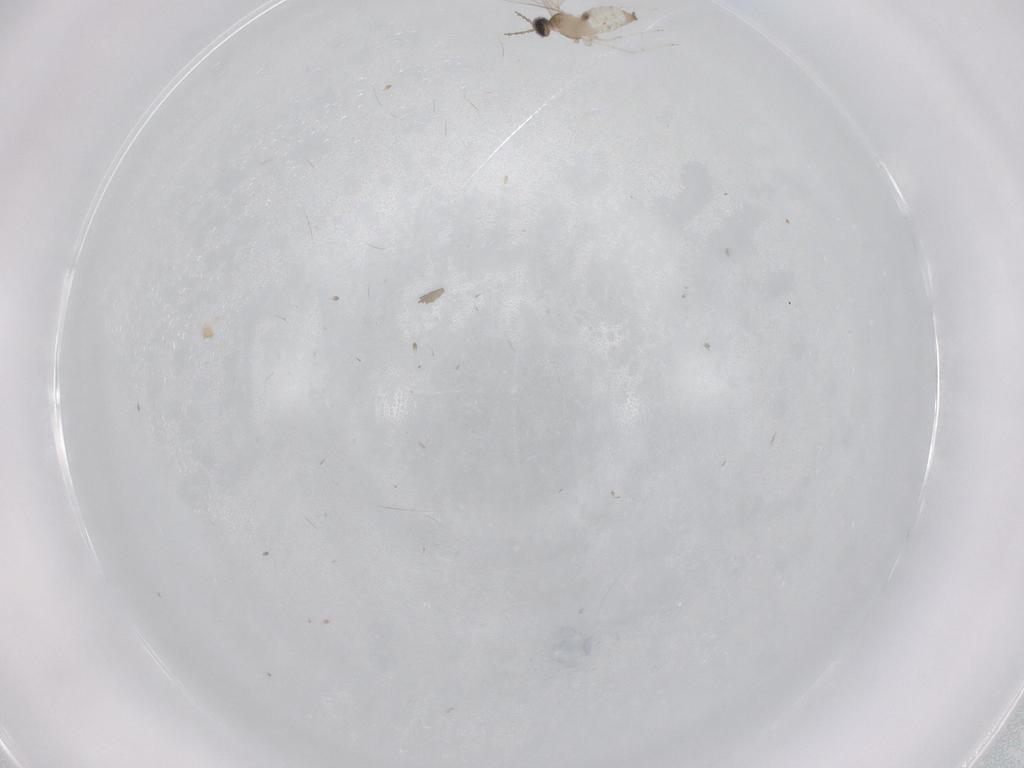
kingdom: Animalia
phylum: Arthropoda
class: Insecta
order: Diptera
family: Cecidomyiidae
